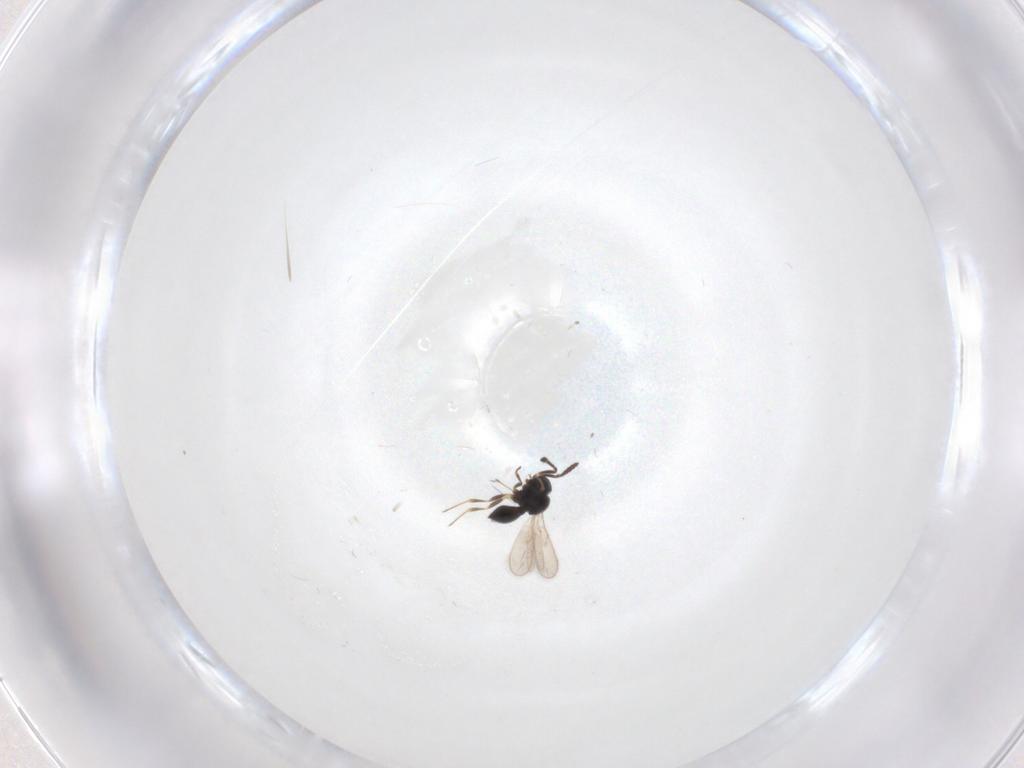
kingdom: Animalia
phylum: Arthropoda
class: Insecta
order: Hymenoptera
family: Scelionidae
